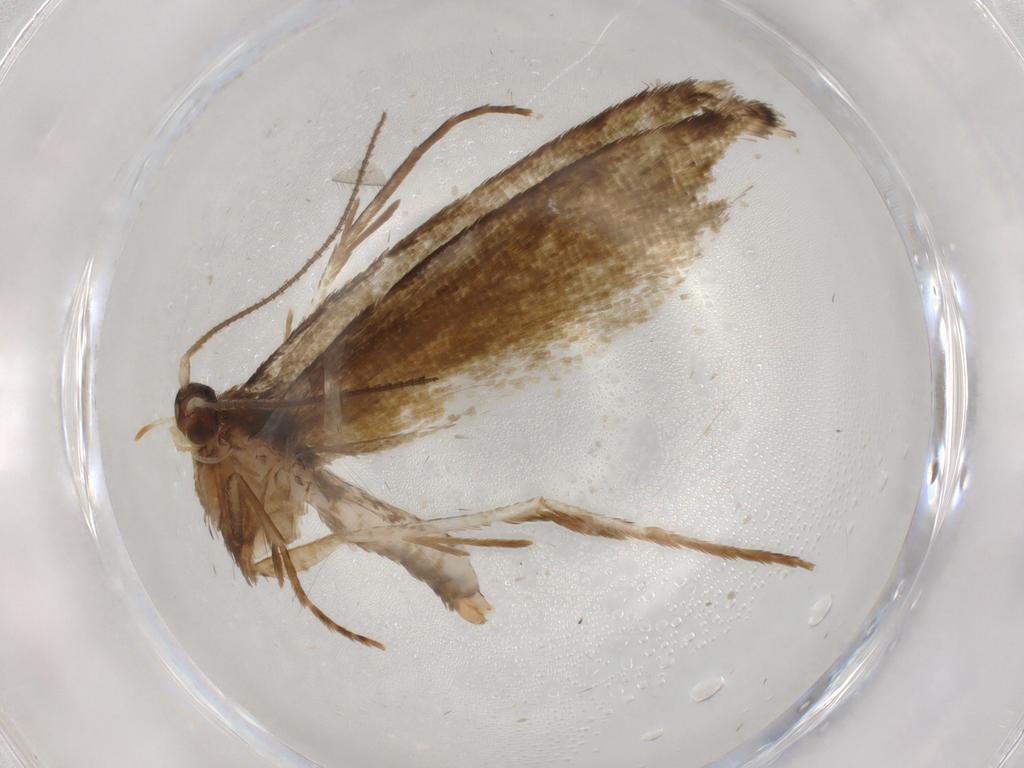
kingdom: Animalia
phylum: Arthropoda
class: Insecta
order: Lepidoptera
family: Tineidae
